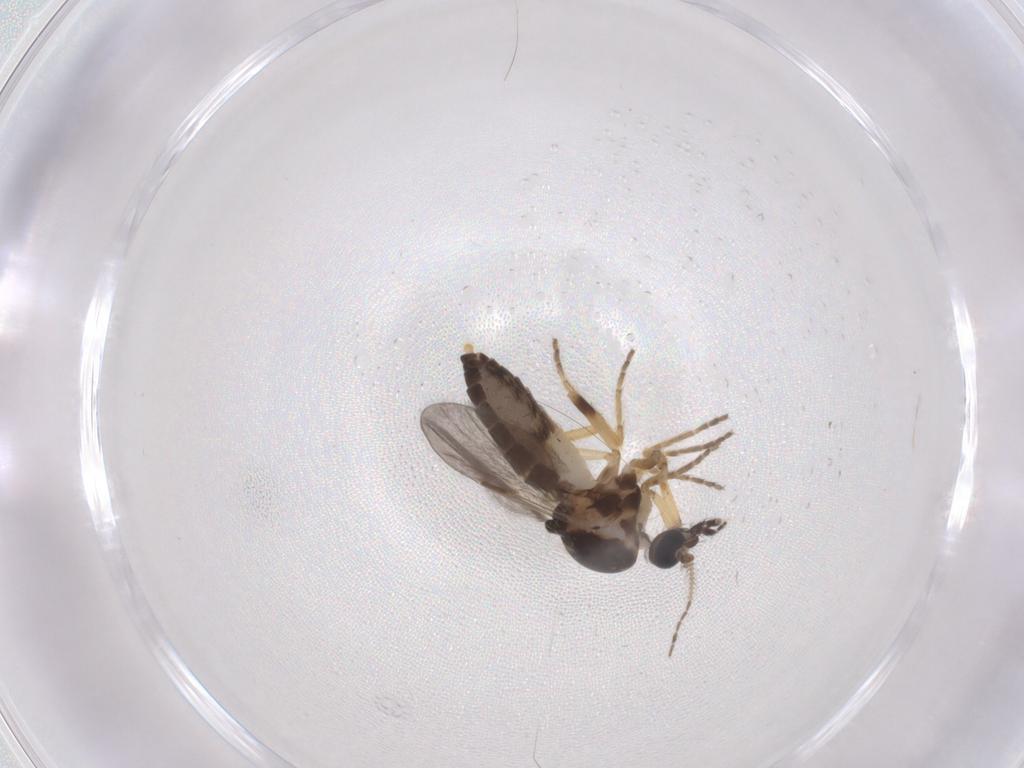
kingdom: Animalia
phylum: Arthropoda
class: Insecta
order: Diptera
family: Ceratopogonidae
